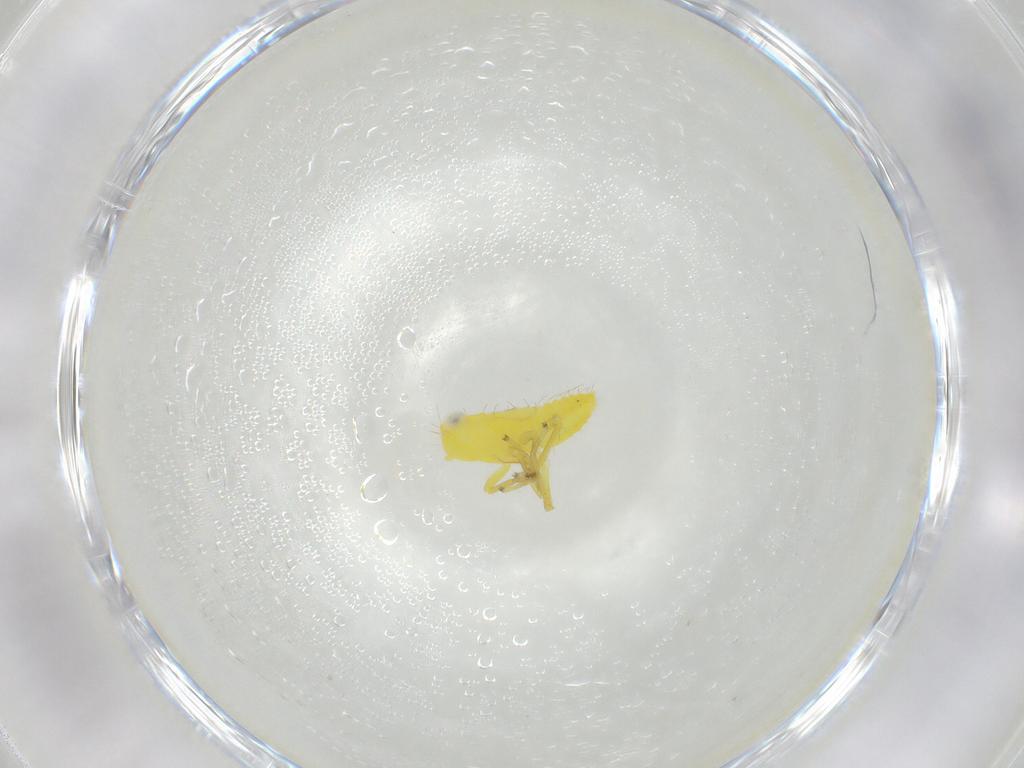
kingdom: Animalia
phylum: Arthropoda
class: Insecta
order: Hemiptera
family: Cicadellidae
